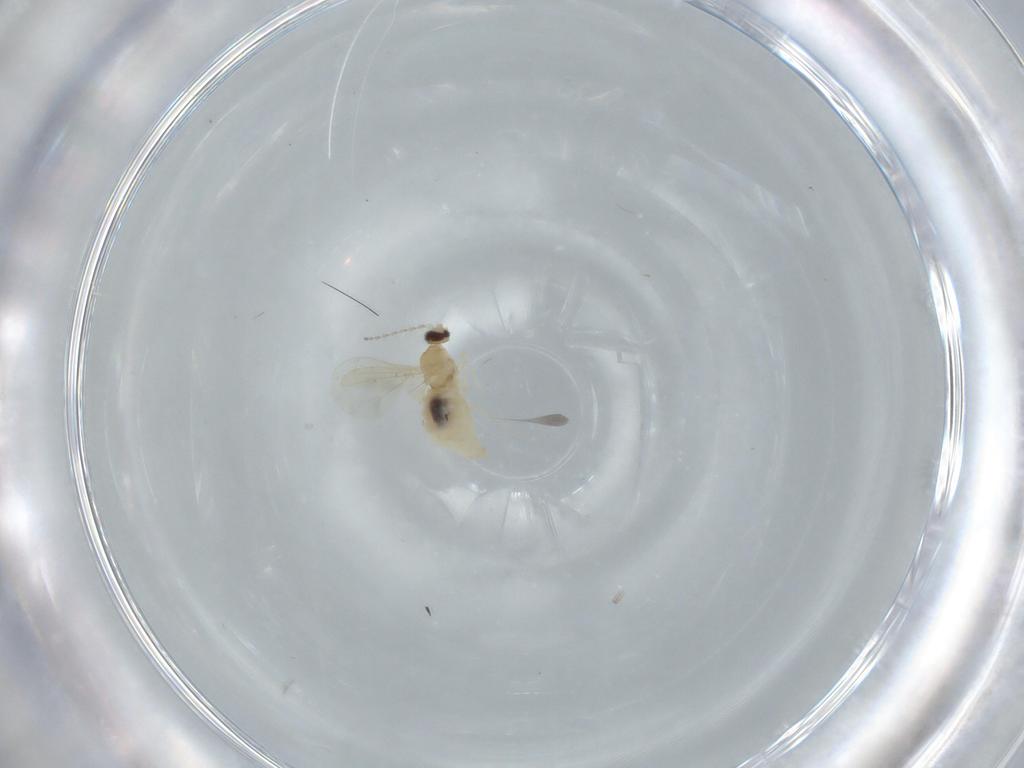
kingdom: Animalia
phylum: Arthropoda
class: Insecta
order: Diptera
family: Cecidomyiidae
